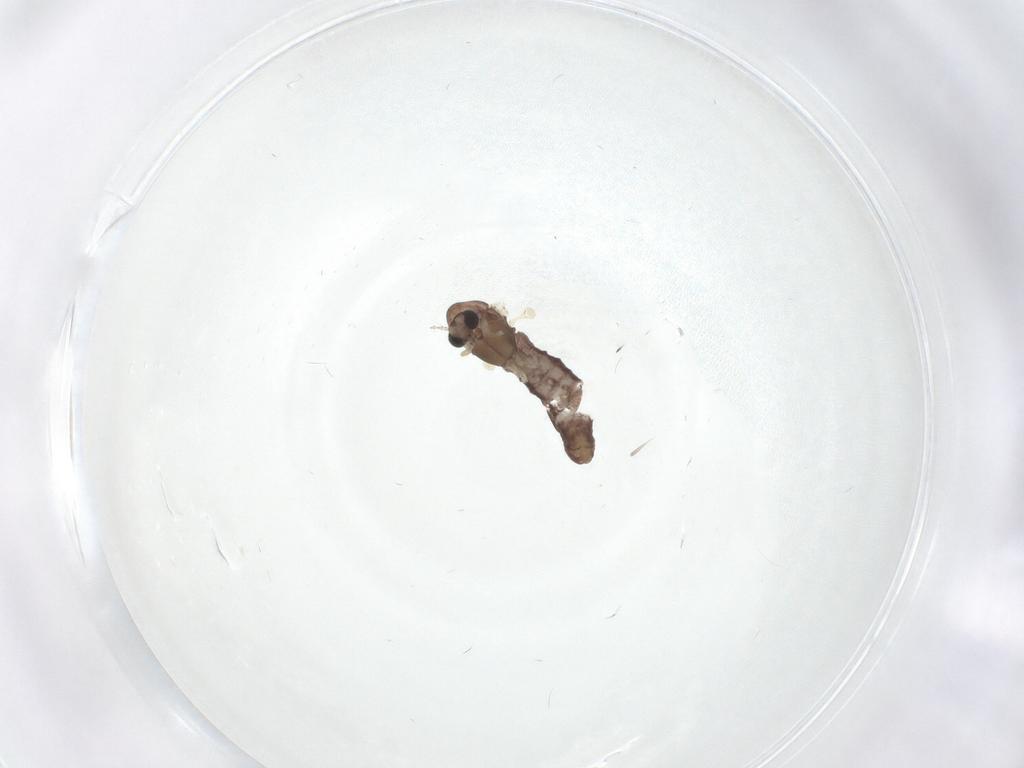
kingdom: Animalia
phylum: Arthropoda
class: Insecta
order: Diptera
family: Chironomidae
